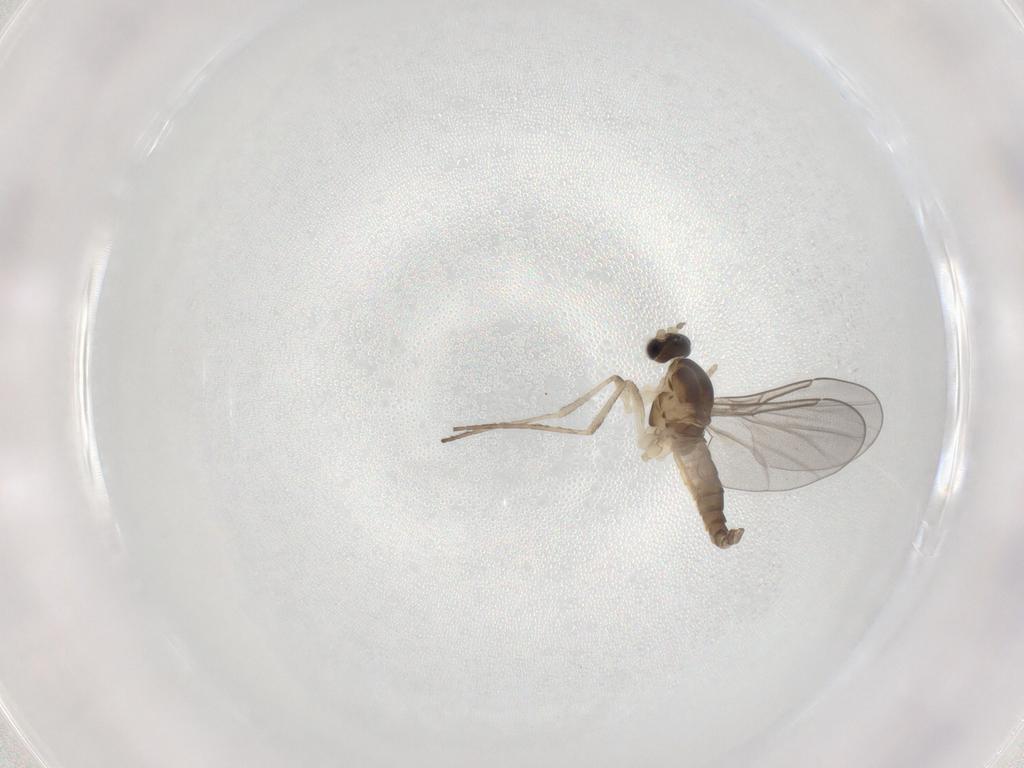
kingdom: Animalia
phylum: Arthropoda
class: Insecta
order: Diptera
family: Cecidomyiidae
